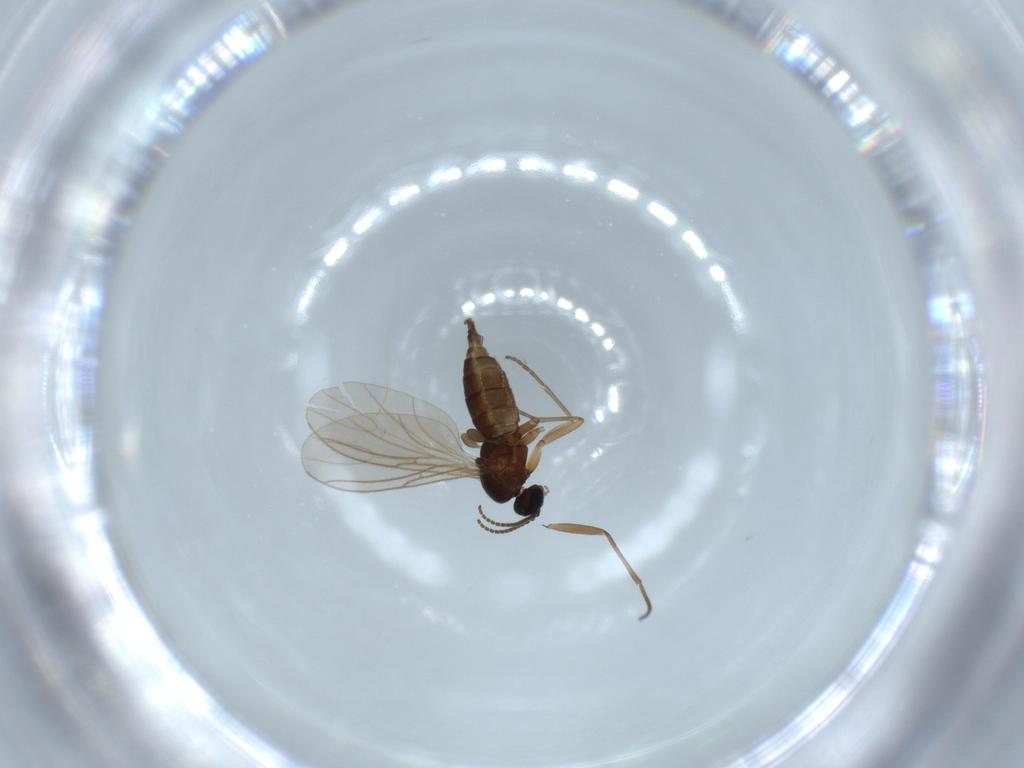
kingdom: Animalia
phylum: Arthropoda
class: Insecta
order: Diptera
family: Sciaridae
